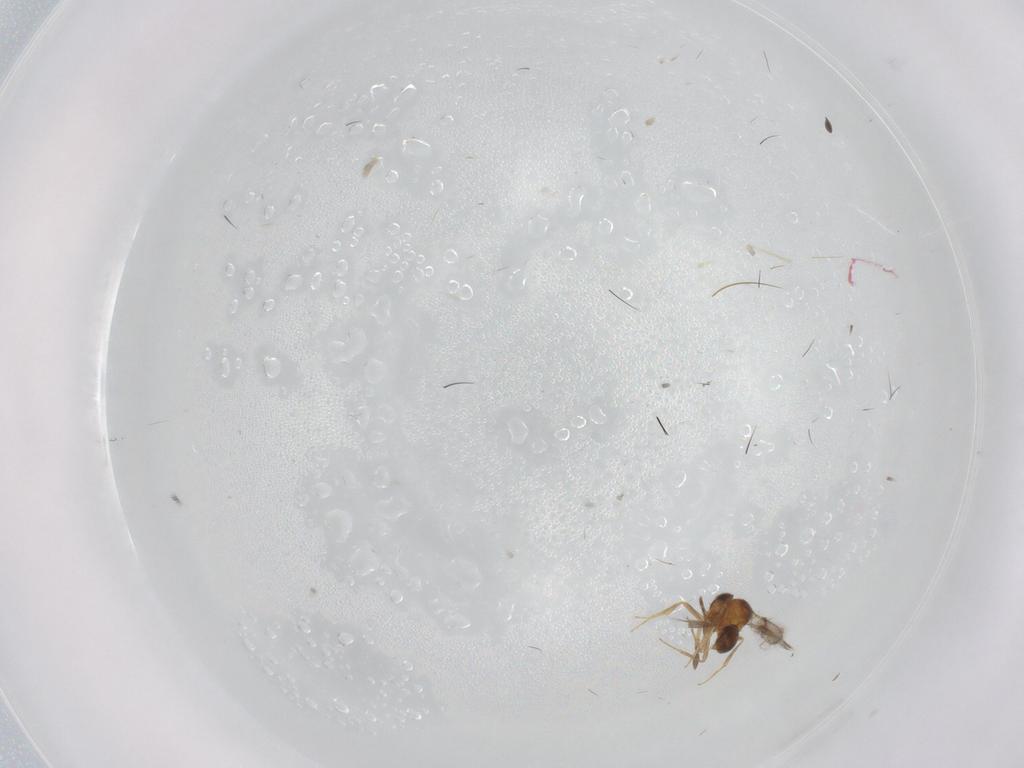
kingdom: Animalia
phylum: Arthropoda
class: Insecta
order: Hymenoptera
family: Scelionidae
